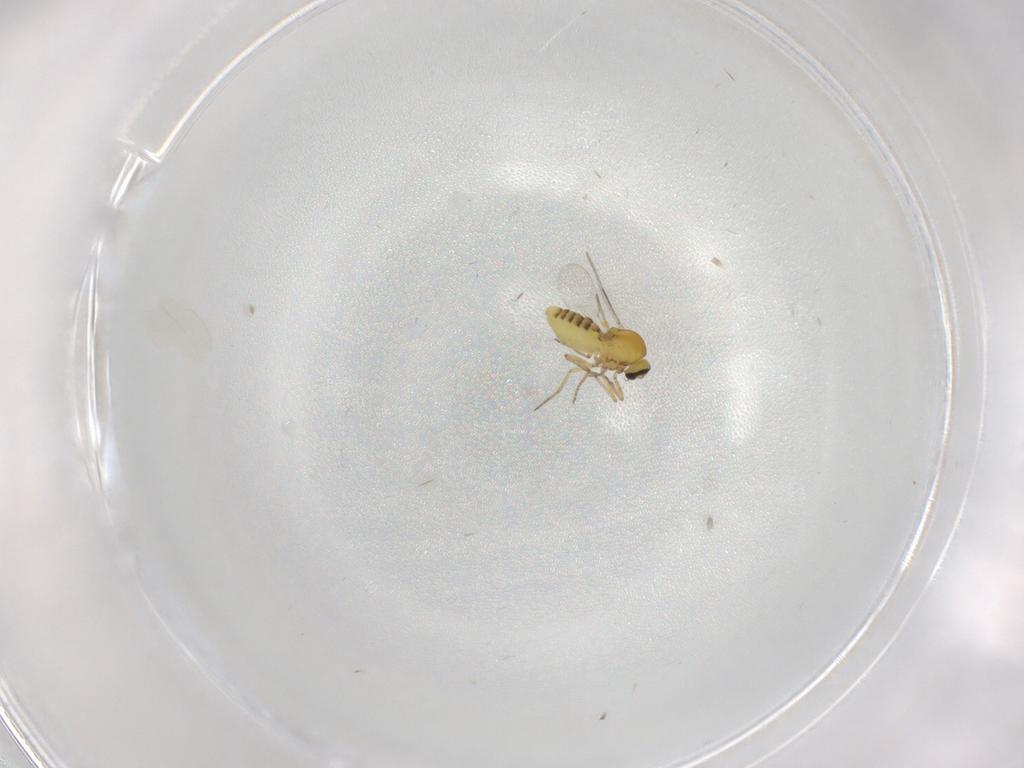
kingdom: Animalia
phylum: Arthropoda
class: Insecta
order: Diptera
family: Ceratopogonidae
